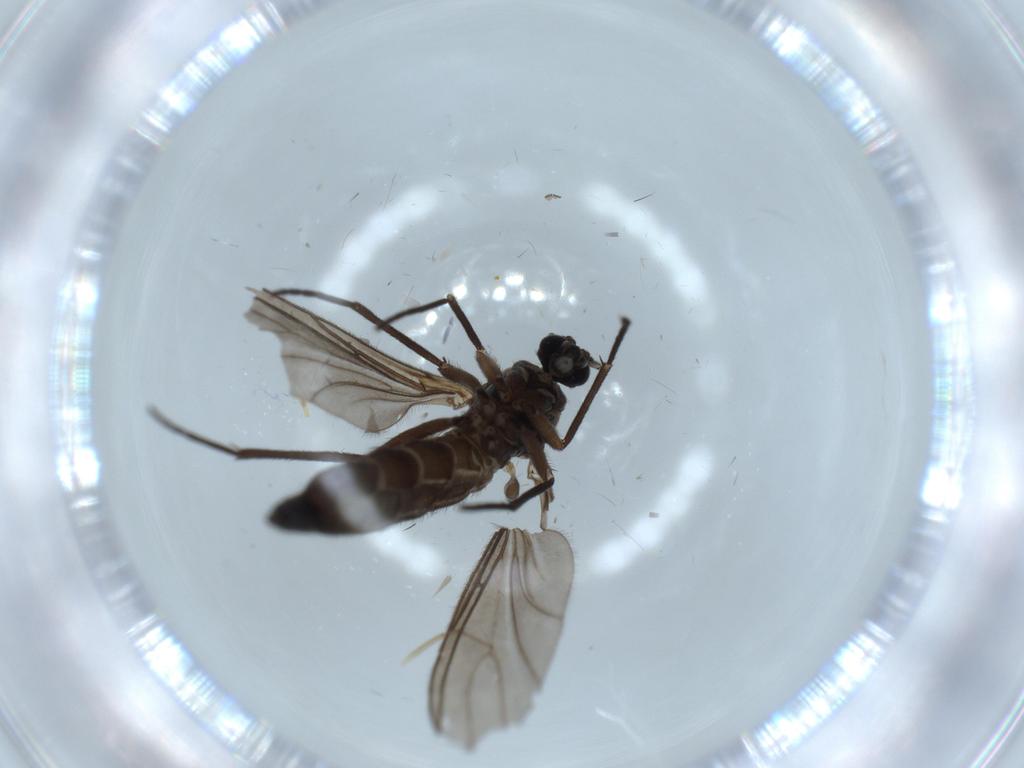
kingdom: Animalia
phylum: Arthropoda
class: Insecta
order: Diptera
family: Sciaridae
